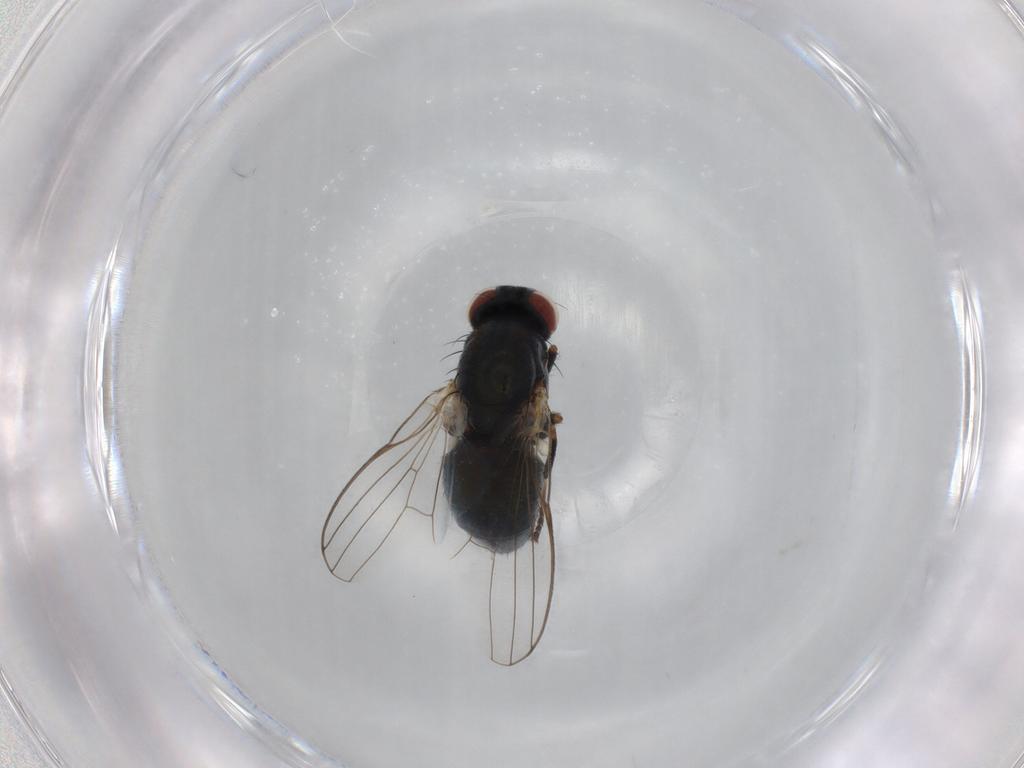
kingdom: Animalia
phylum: Arthropoda
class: Insecta
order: Diptera
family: Chamaemyiidae
